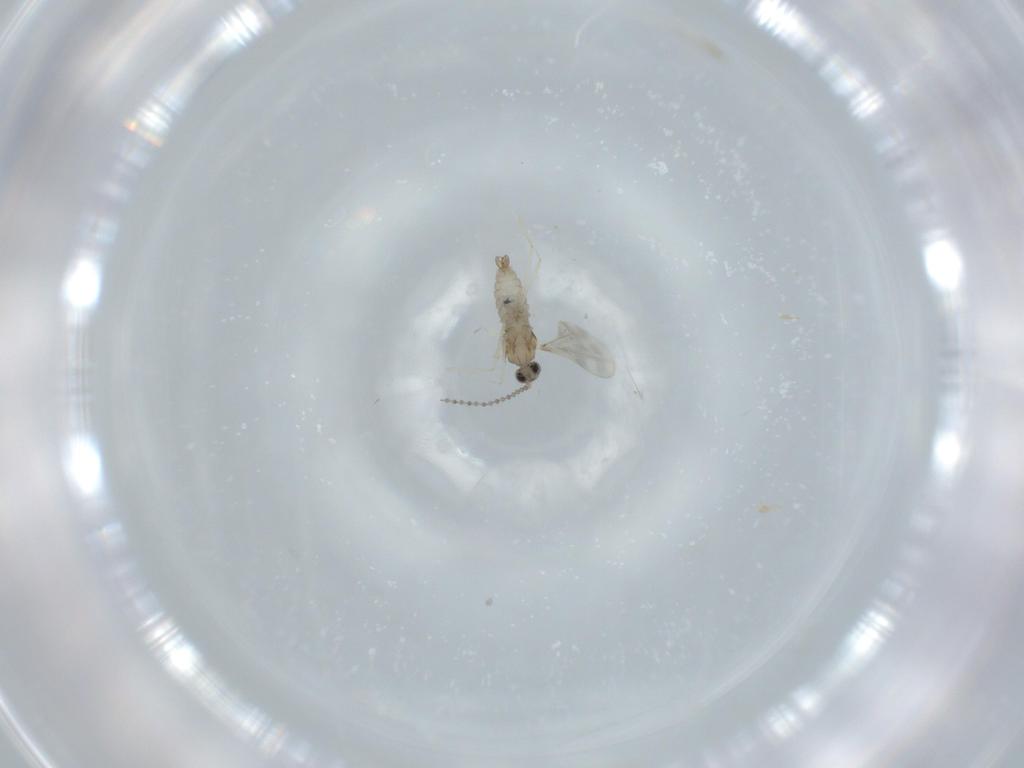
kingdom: Animalia
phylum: Arthropoda
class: Insecta
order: Diptera
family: Cecidomyiidae
